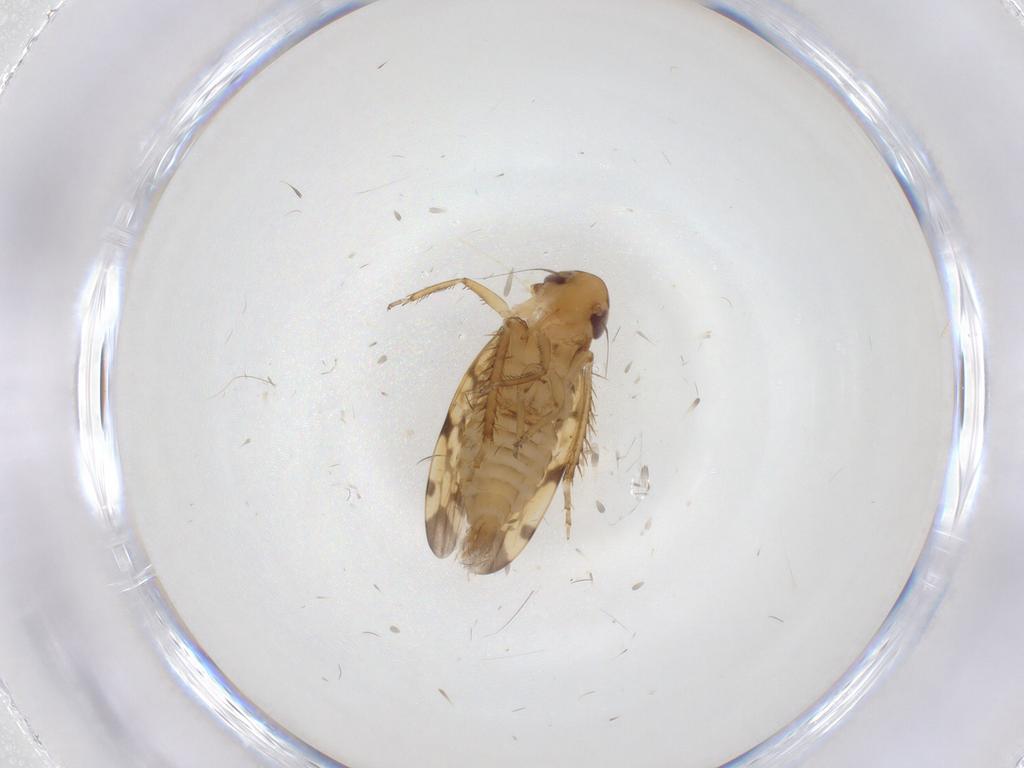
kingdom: Animalia
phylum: Arthropoda
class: Insecta
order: Hemiptera
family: Cicadellidae
